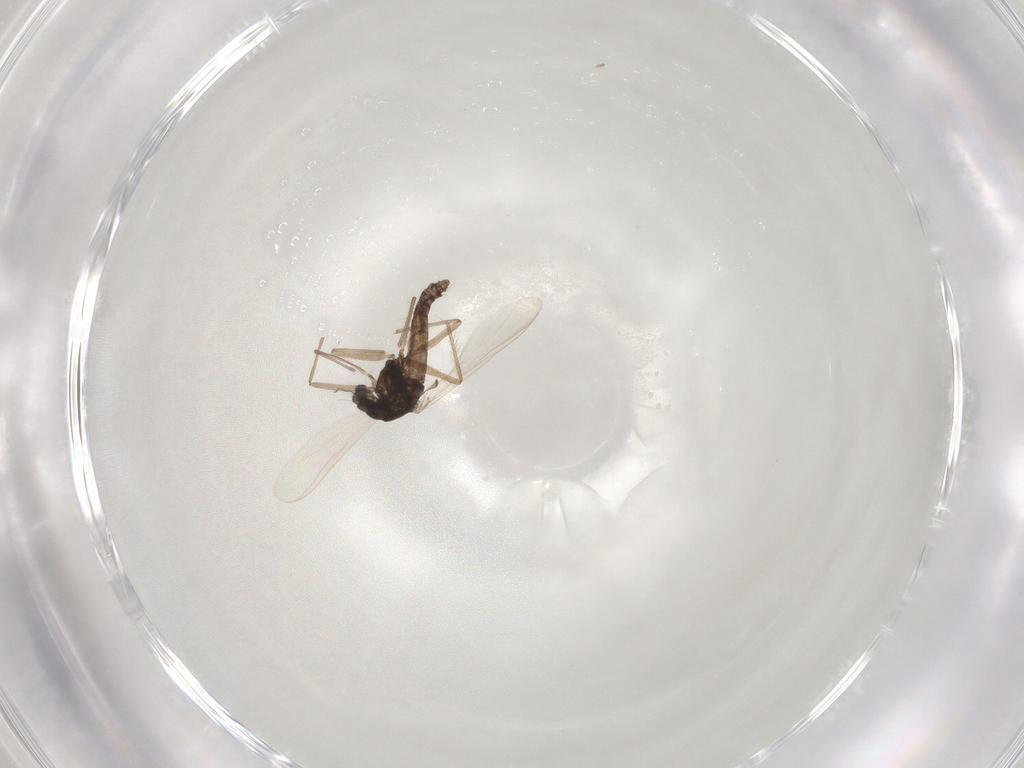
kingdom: Animalia
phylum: Arthropoda
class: Insecta
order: Diptera
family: Chironomidae
